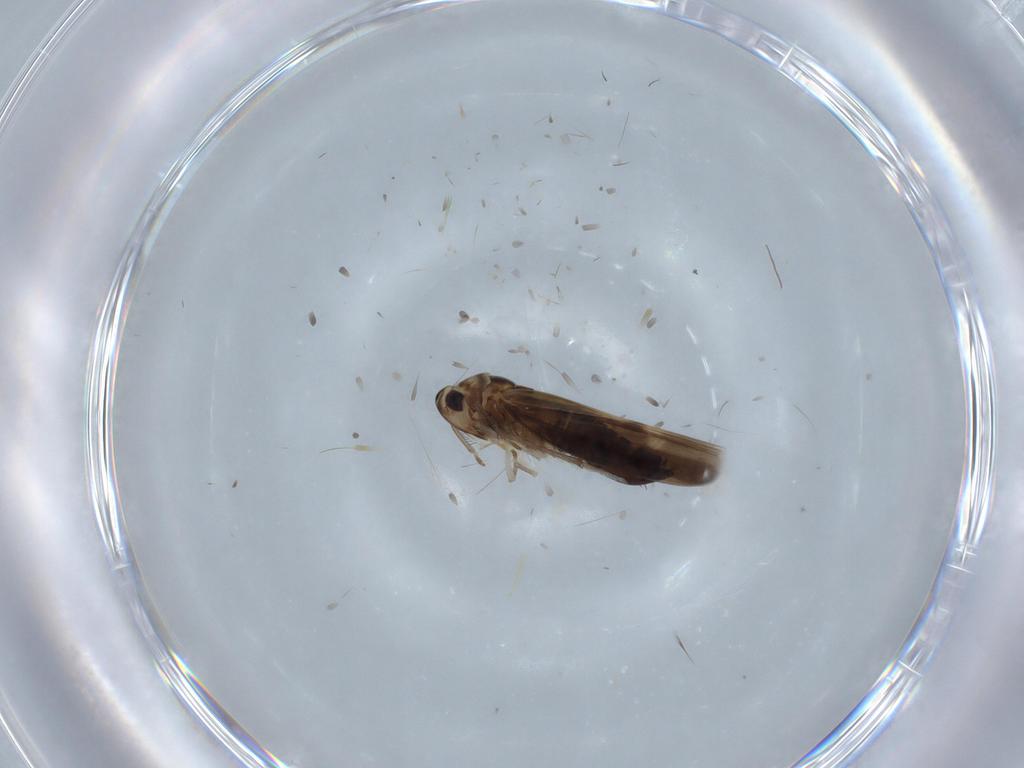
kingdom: Animalia
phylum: Arthropoda
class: Insecta
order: Hemiptera
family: Cicadellidae
